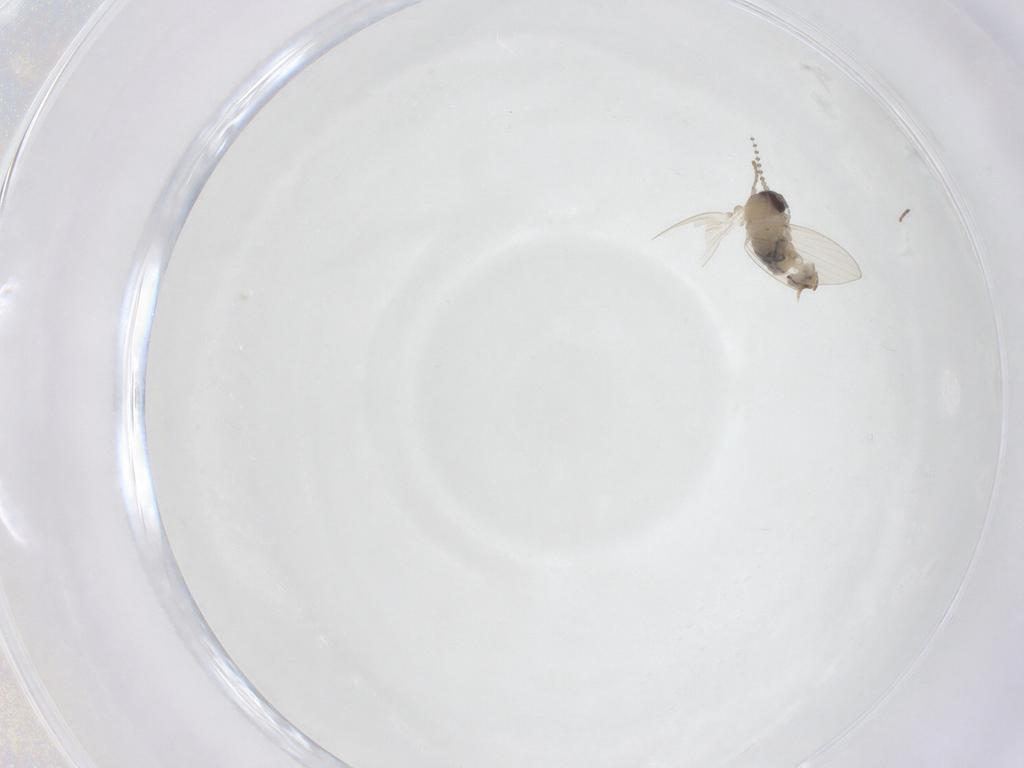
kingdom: Animalia
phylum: Arthropoda
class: Insecta
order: Diptera
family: Psychodidae
